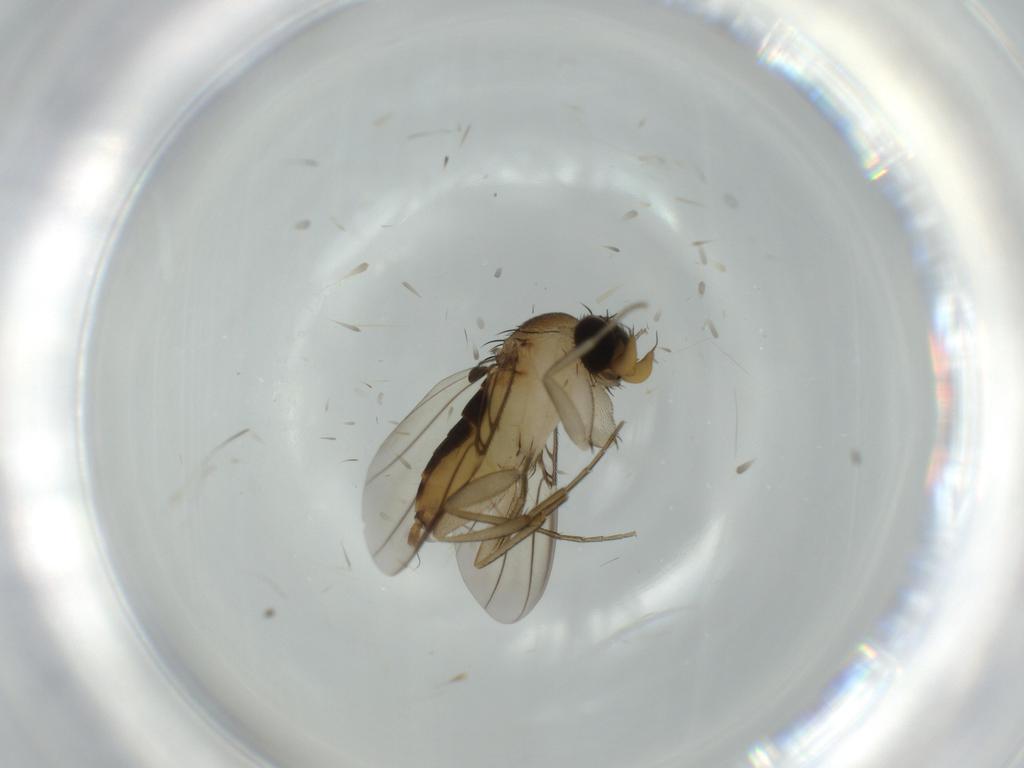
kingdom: Animalia
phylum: Arthropoda
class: Insecta
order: Diptera
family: Phoridae
